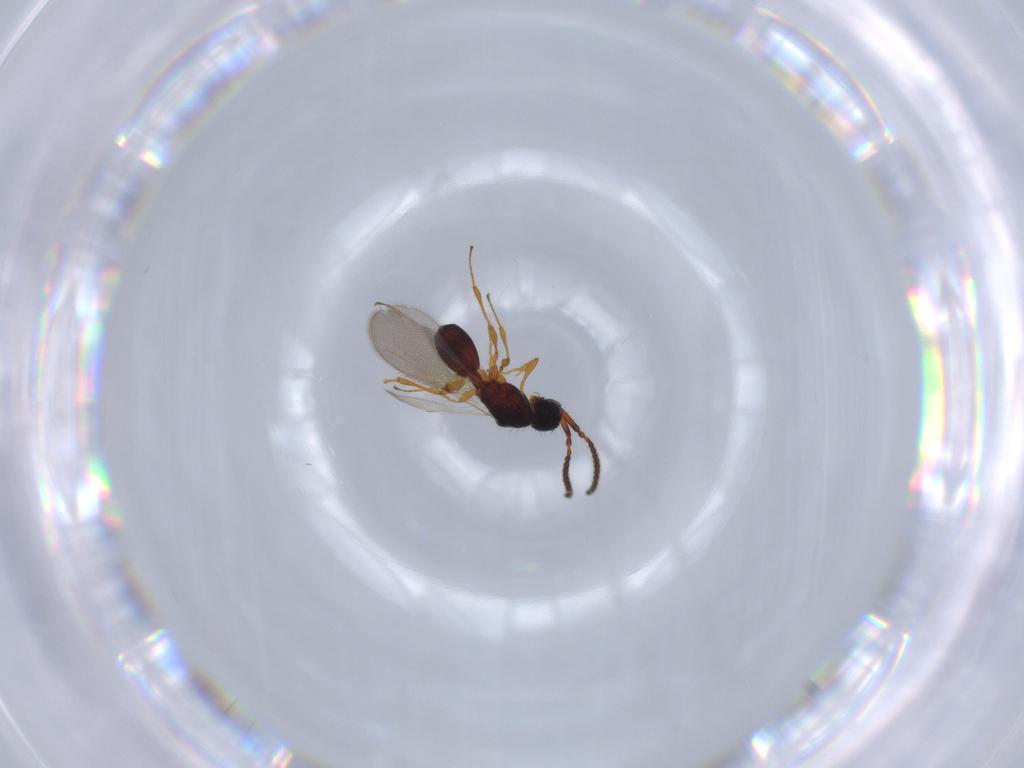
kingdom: Animalia
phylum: Arthropoda
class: Insecta
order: Hymenoptera
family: Diapriidae
